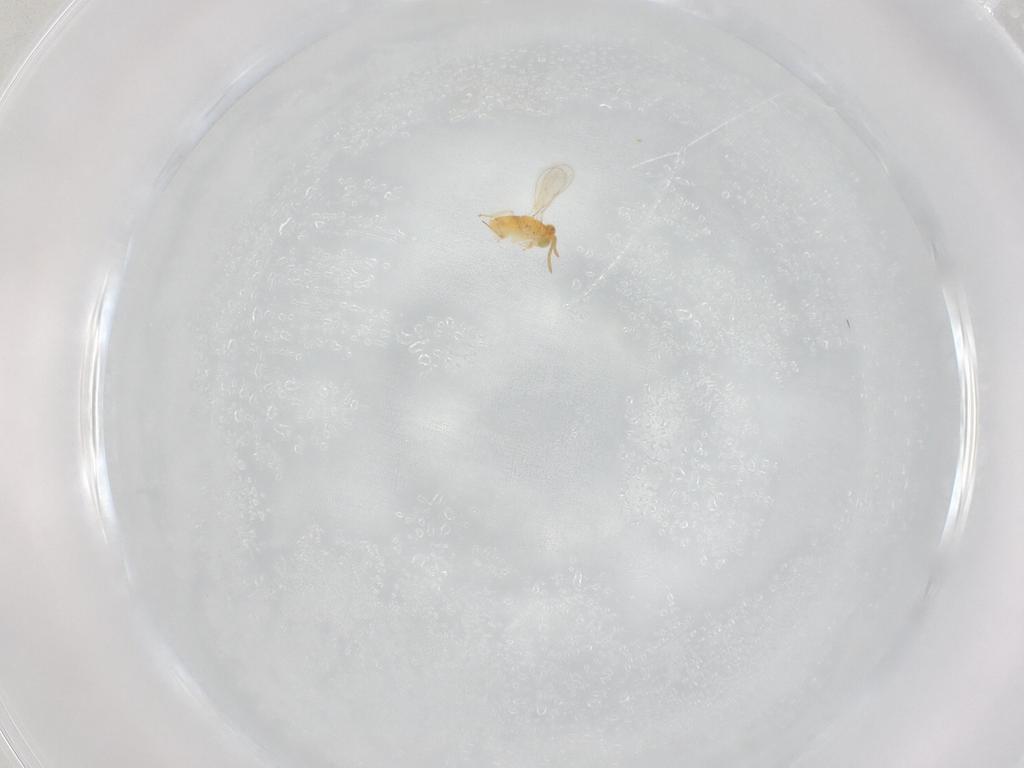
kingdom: Animalia
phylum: Arthropoda
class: Insecta
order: Hymenoptera
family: Aphelinidae
